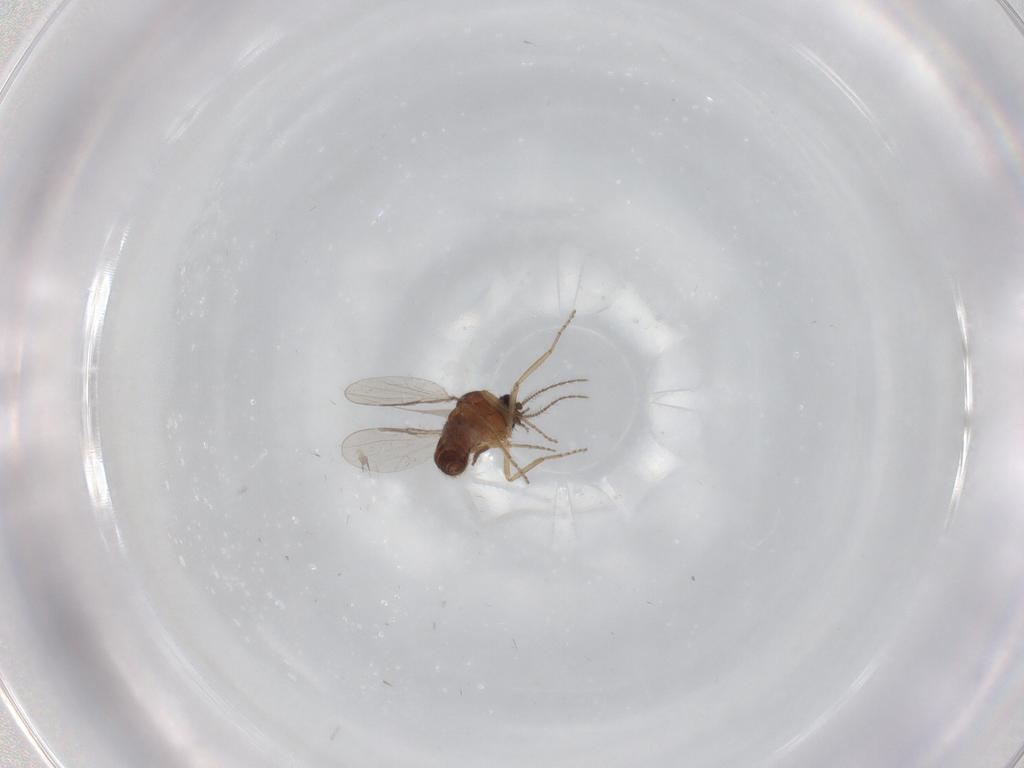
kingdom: Animalia
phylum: Arthropoda
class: Insecta
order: Diptera
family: Ceratopogonidae
